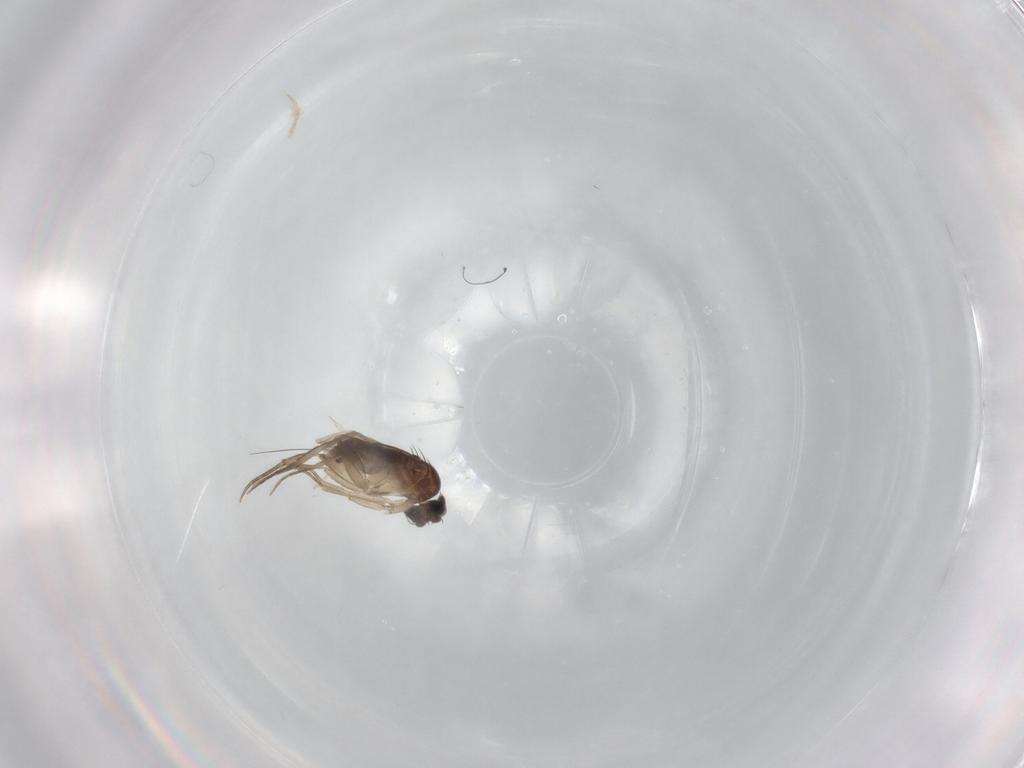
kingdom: Animalia
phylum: Arthropoda
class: Insecta
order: Diptera
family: Phoridae
